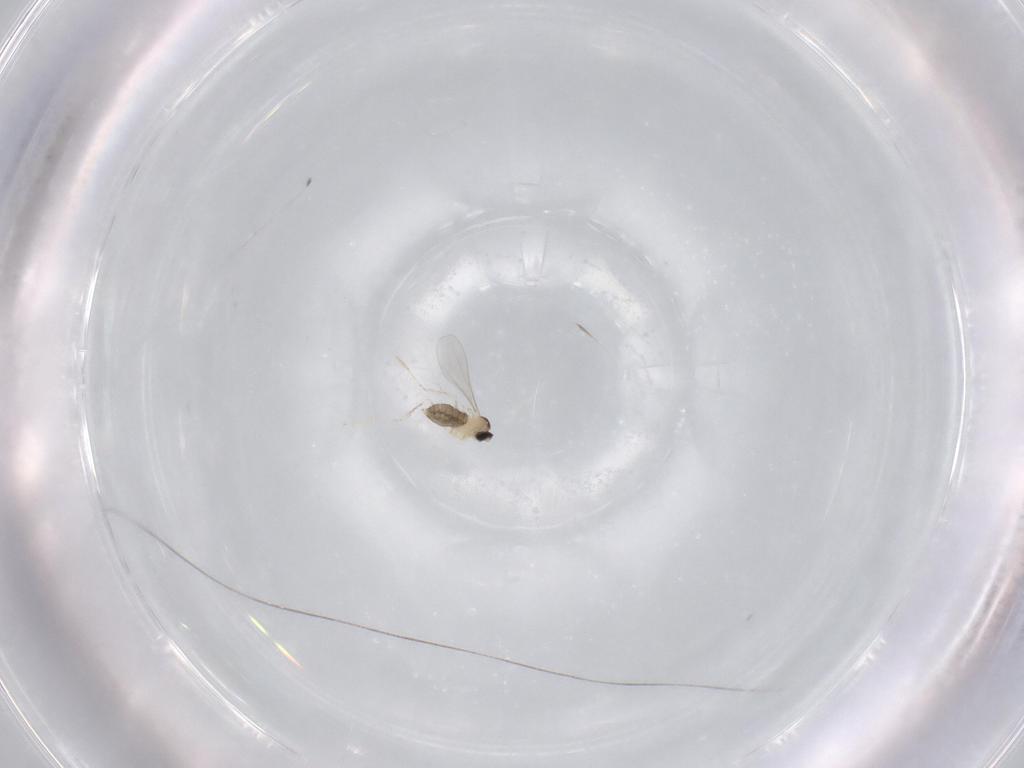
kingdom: Animalia
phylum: Arthropoda
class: Insecta
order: Diptera
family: Cecidomyiidae
